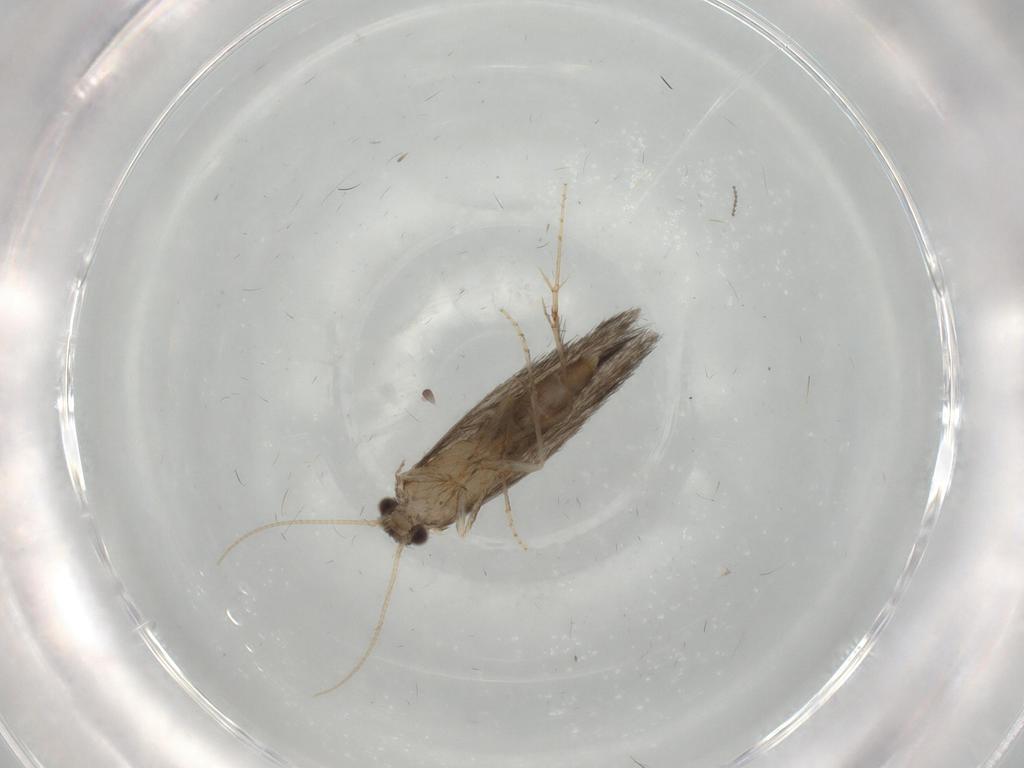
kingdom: Animalia
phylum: Arthropoda
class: Insecta
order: Trichoptera
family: Hydroptilidae
